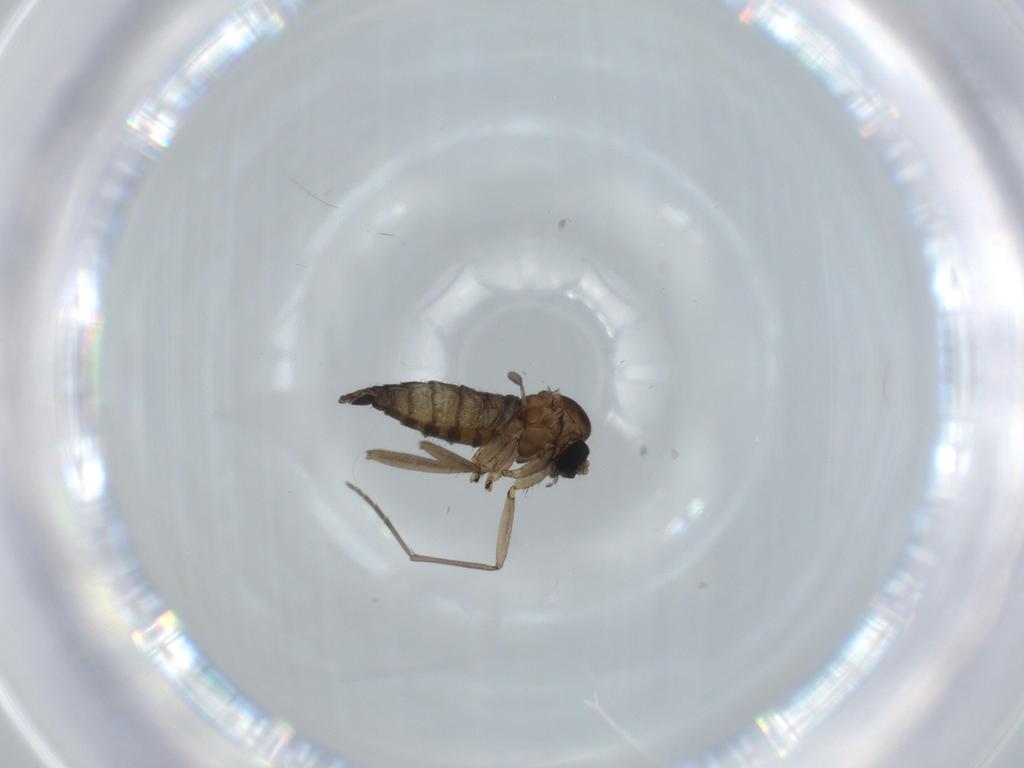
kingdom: Animalia
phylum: Arthropoda
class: Insecta
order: Diptera
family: Sciaridae
